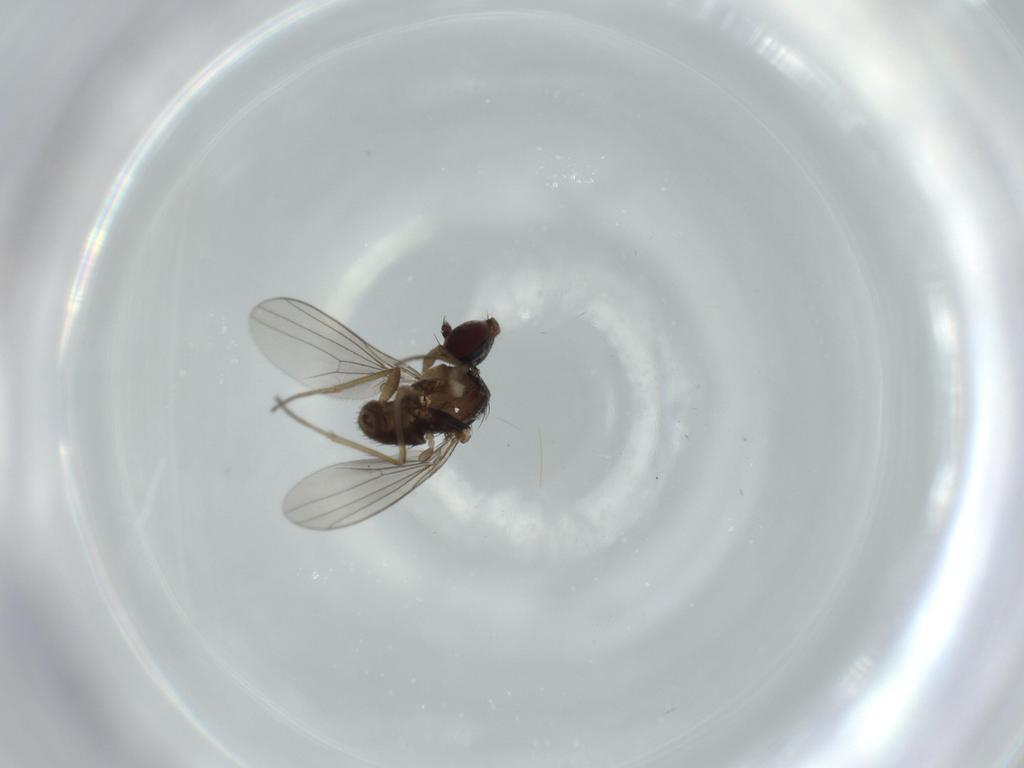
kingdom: Animalia
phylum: Arthropoda
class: Insecta
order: Diptera
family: Dolichopodidae
